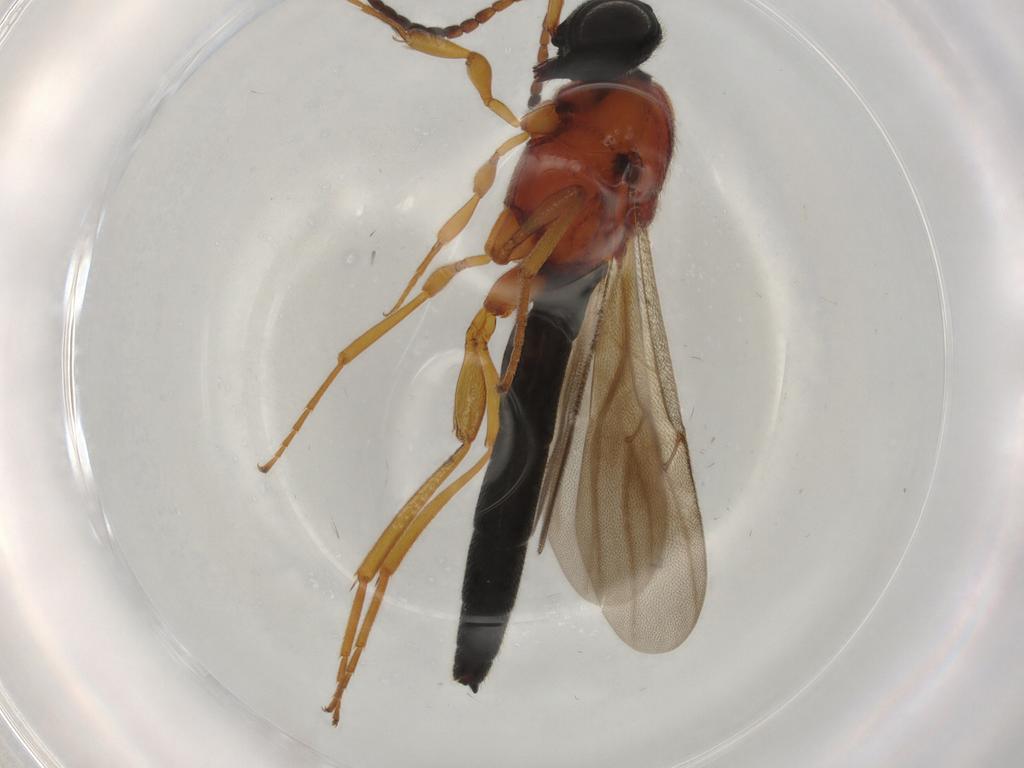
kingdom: Animalia
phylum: Arthropoda
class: Insecta
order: Hymenoptera
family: Scelionidae
